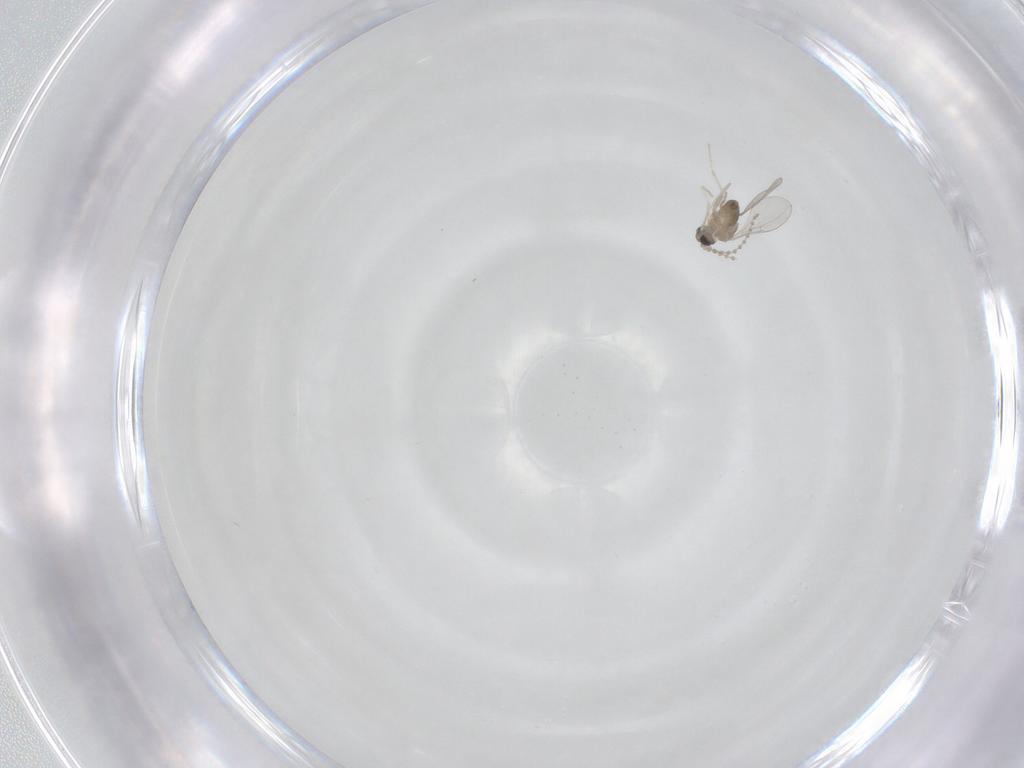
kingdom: Animalia
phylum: Arthropoda
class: Insecta
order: Diptera
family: Cecidomyiidae
